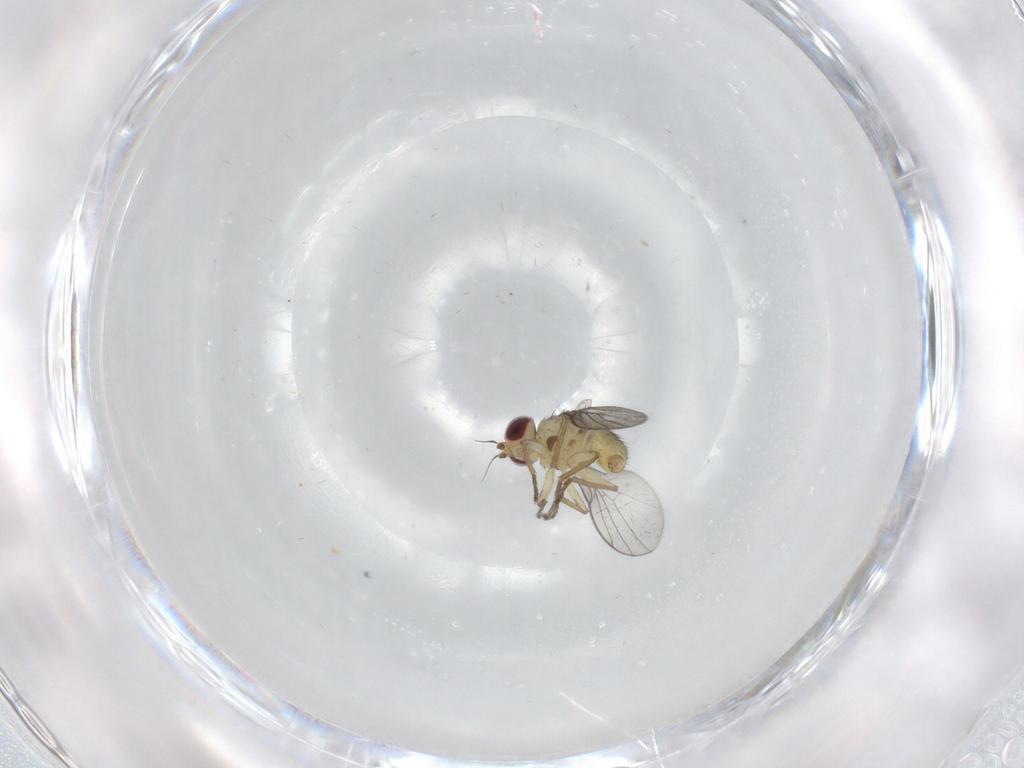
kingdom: Animalia
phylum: Arthropoda
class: Insecta
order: Diptera
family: Agromyzidae
